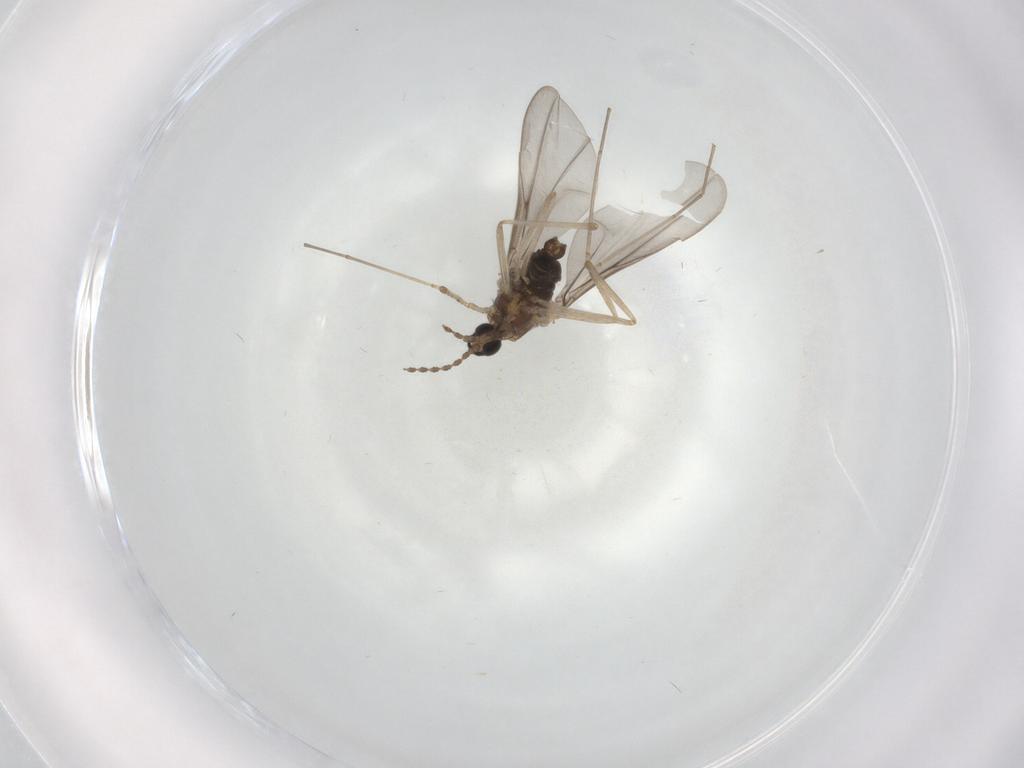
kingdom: Animalia
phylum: Arthropoda
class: Insecta
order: Diptera
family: Cecidomyiidae
